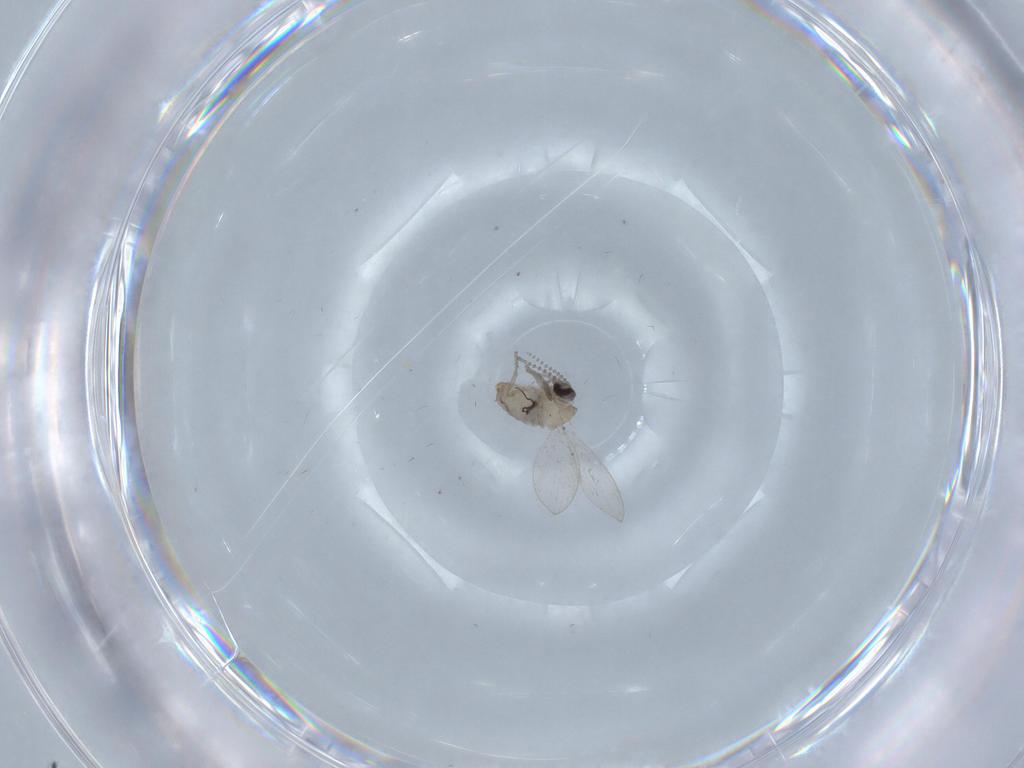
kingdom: Animalia
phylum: Arthropoda
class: Insecta
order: Diptera
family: Psychodidae
